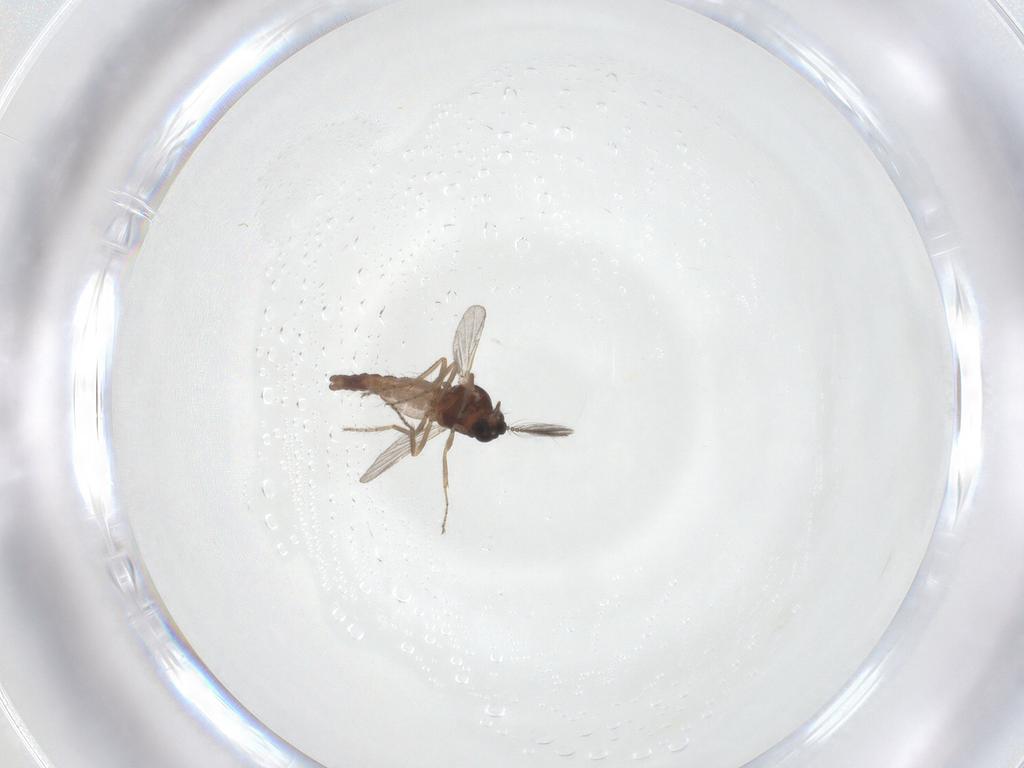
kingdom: Animalia
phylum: Arthropoda
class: Insecta
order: Diptera
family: Ceratopogonidae
